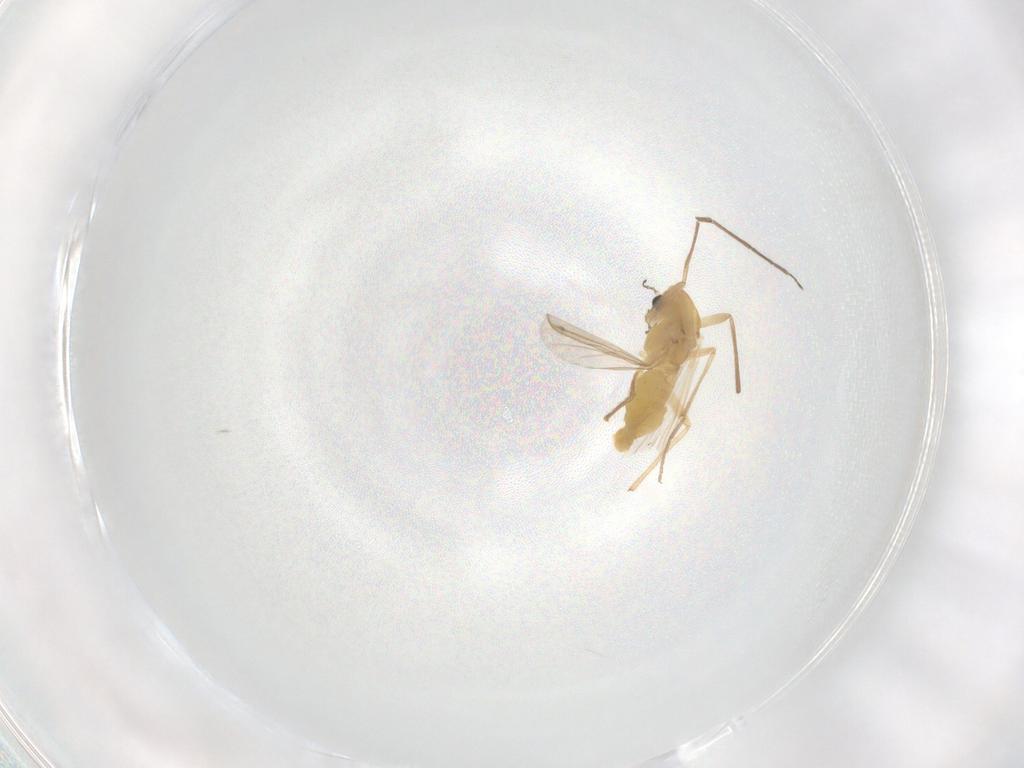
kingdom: Animalia
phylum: Arthropoda
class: Insecta
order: Diptera
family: Chironomidae
